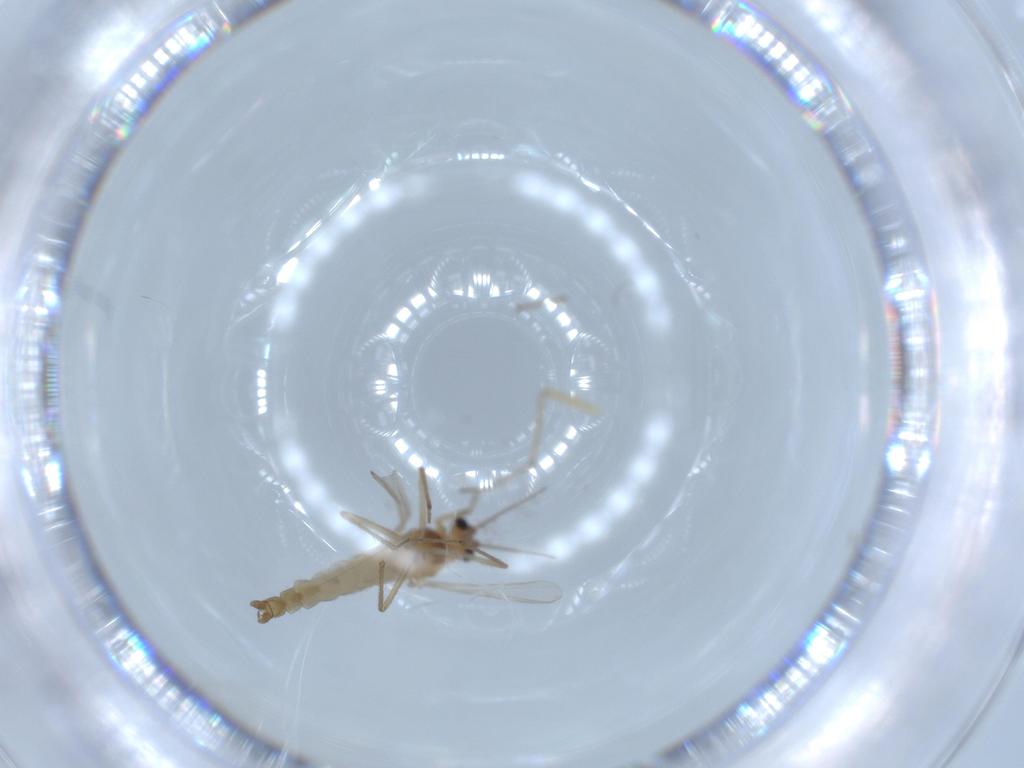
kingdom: Animalia
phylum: Arthropoda
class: Insecta
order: Diptera
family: Chironomidae
